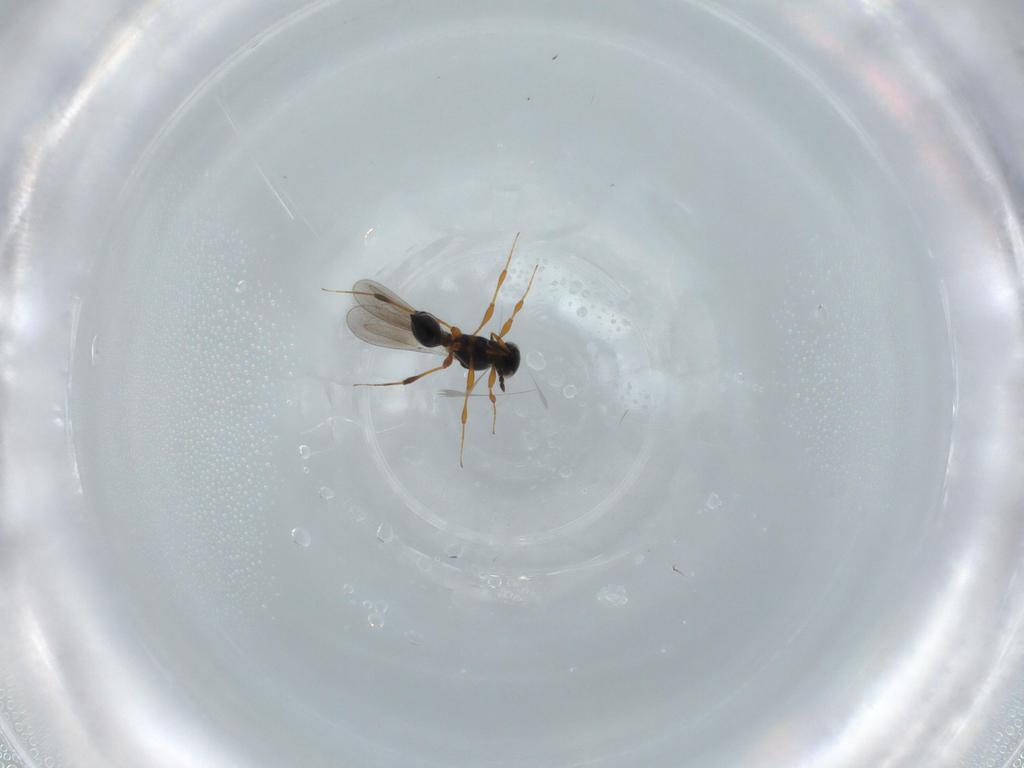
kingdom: Animalia
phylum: Arthropoda
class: Insecta
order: Hymenoptera
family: Platygastridae
